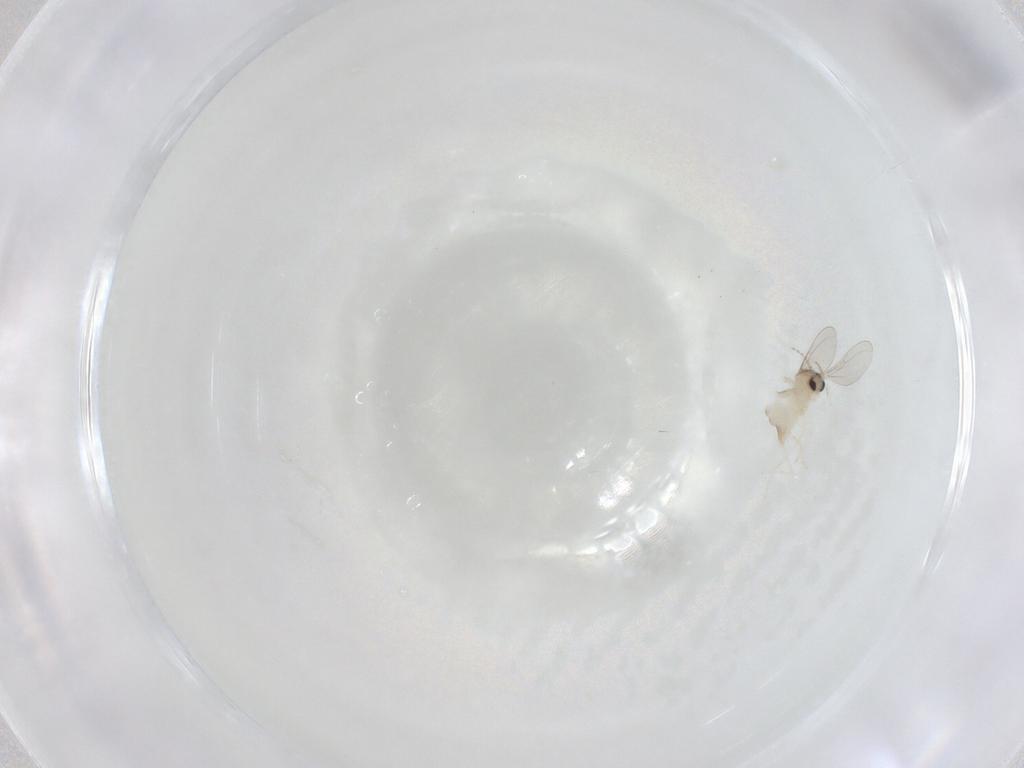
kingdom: Animalia
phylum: Arthropoda
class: Insecta
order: Diptera
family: Cecidomyiidae
